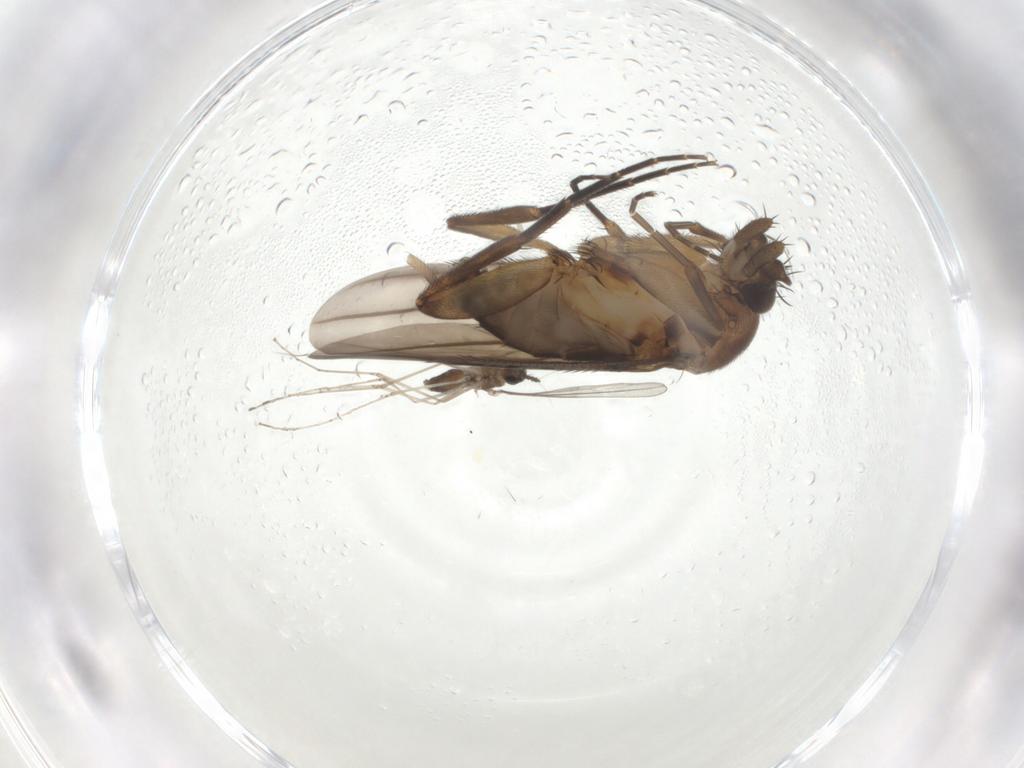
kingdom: Animalia
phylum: Arthropoda
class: Insecta
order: Diptera
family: Phoridae
